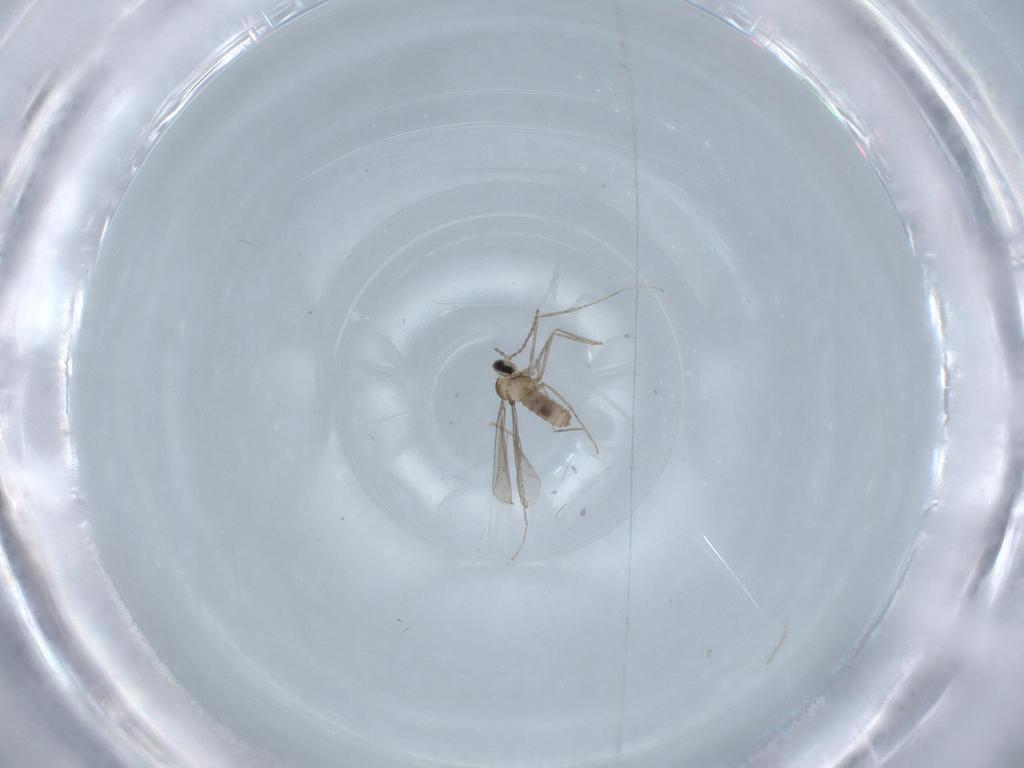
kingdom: Animalia
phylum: Arthropoda
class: Insecta
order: Diptera
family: Cecidomyiidae
